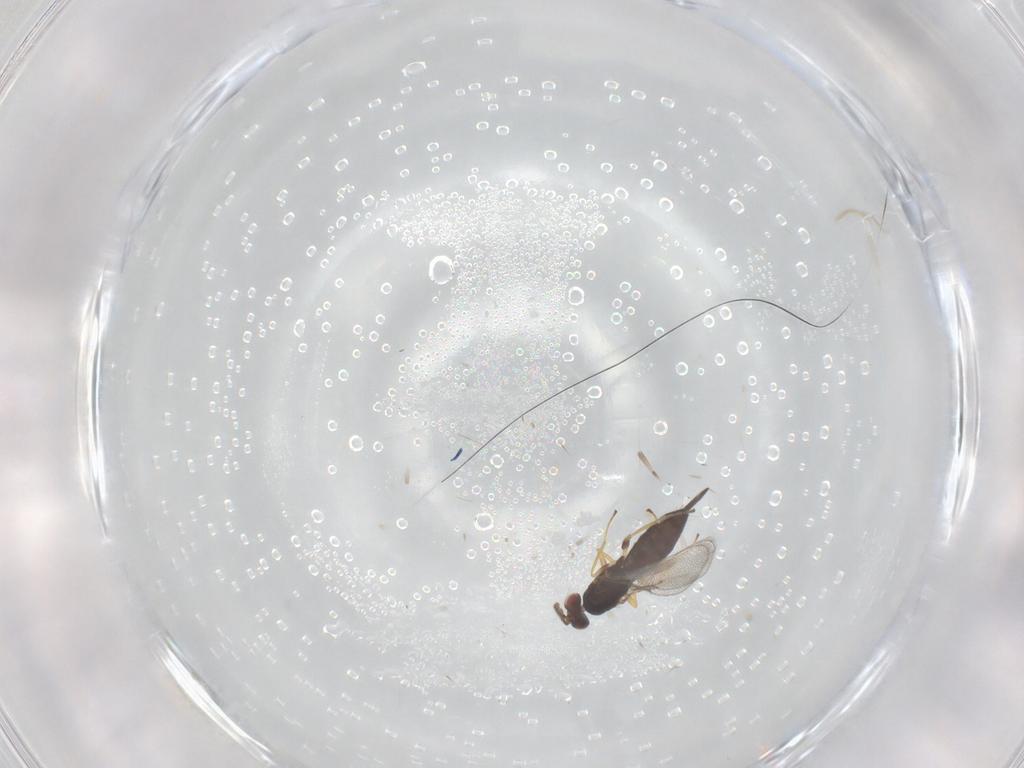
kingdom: Animalia
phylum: Arthropoda
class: Insecta
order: Hymenoptera
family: Eulophidae
